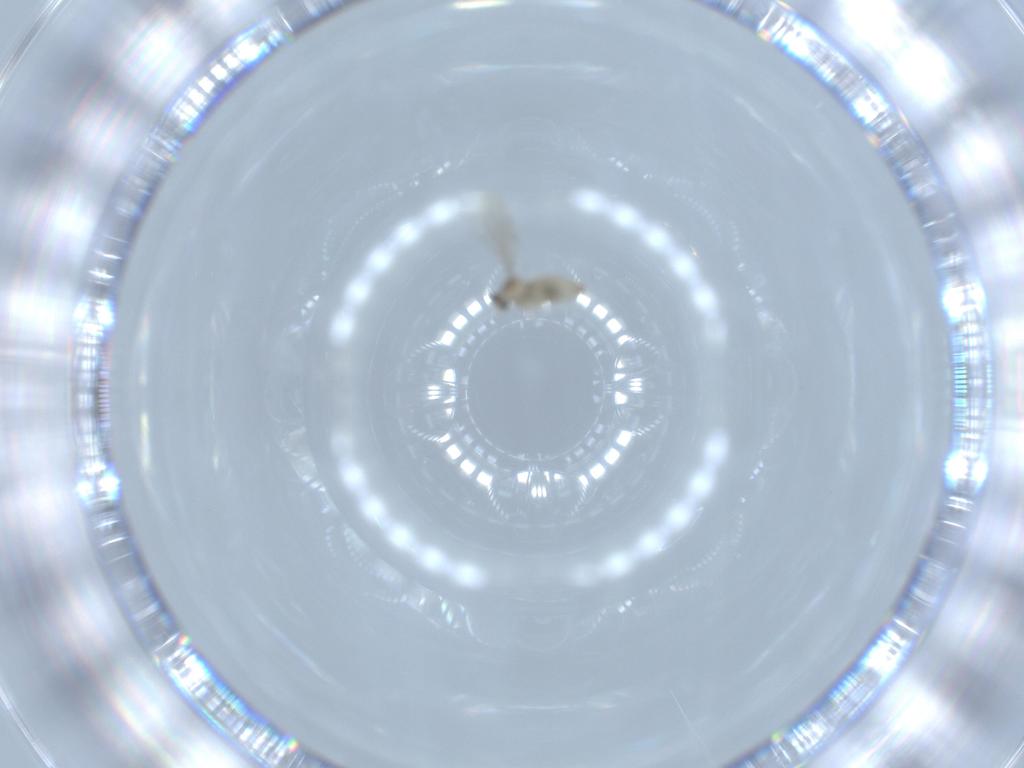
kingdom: Animalia
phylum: Arthropoda
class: Insecta
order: Diptera
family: Cecidomyiidae
